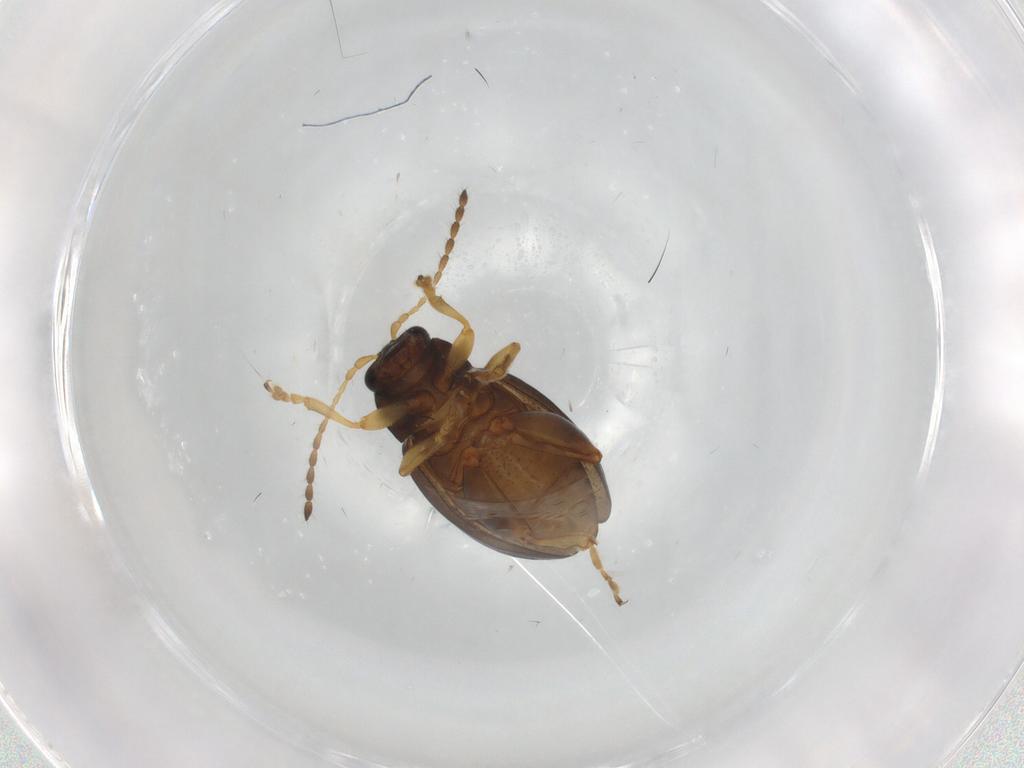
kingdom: Animalia
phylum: Arthropoda
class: Insecta
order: Coleoptera
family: Chrysomelidae
